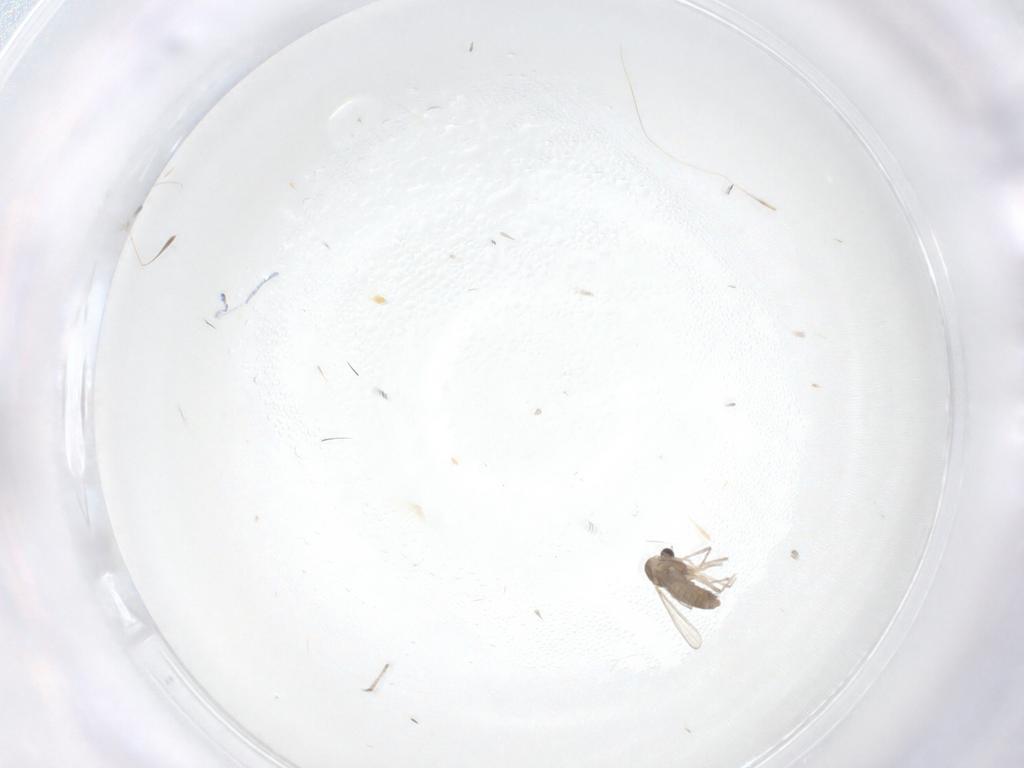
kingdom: Animalia
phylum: Arthropoda
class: Insecta
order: Diptera
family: Chironomidae
